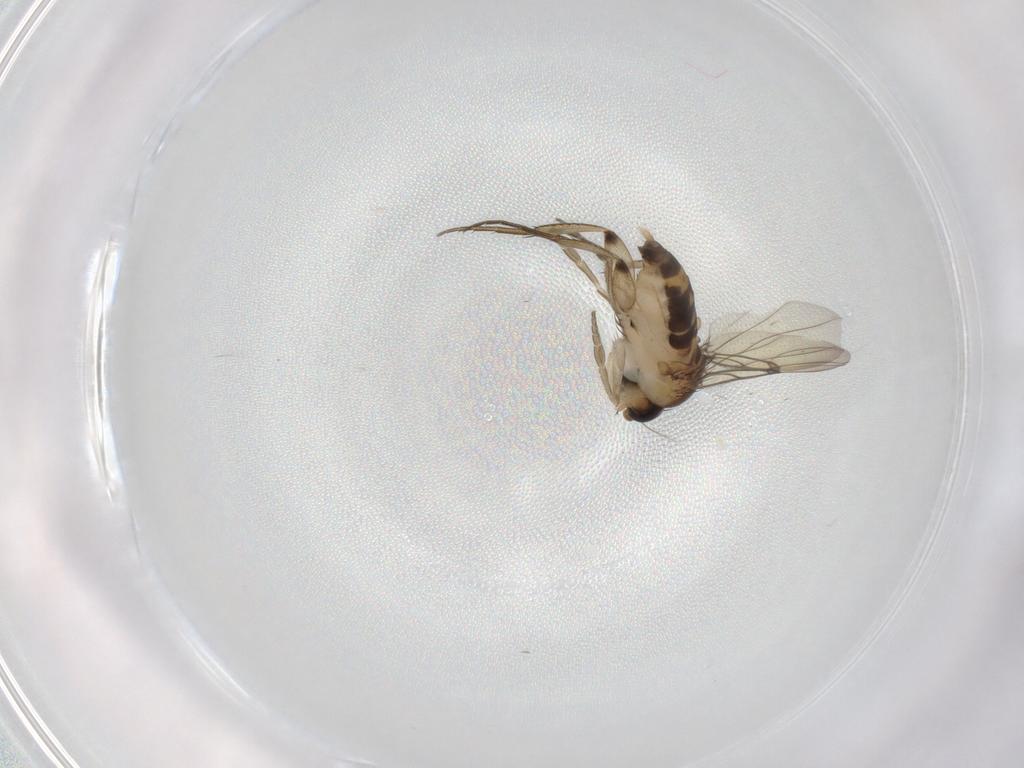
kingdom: Animalia
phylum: Arthropoda
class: Insecta
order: Diptera
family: Phoridae
